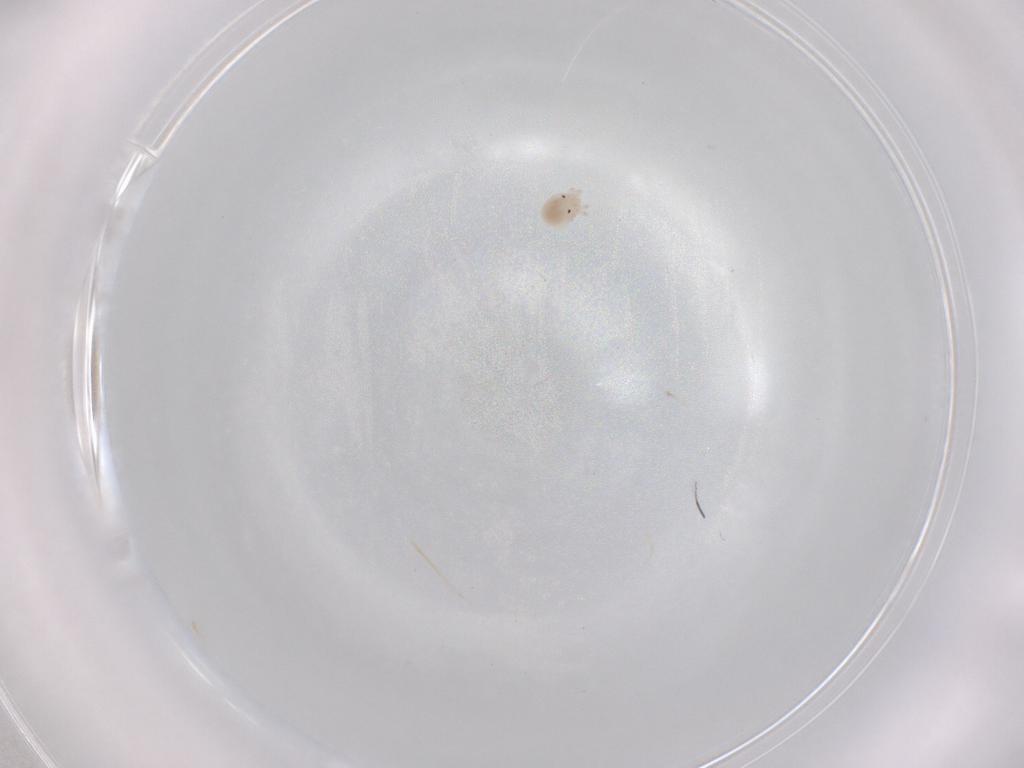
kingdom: Animalia
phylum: Arthropoda
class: Arachnida
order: Trombidiformes
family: Lebertiidae
